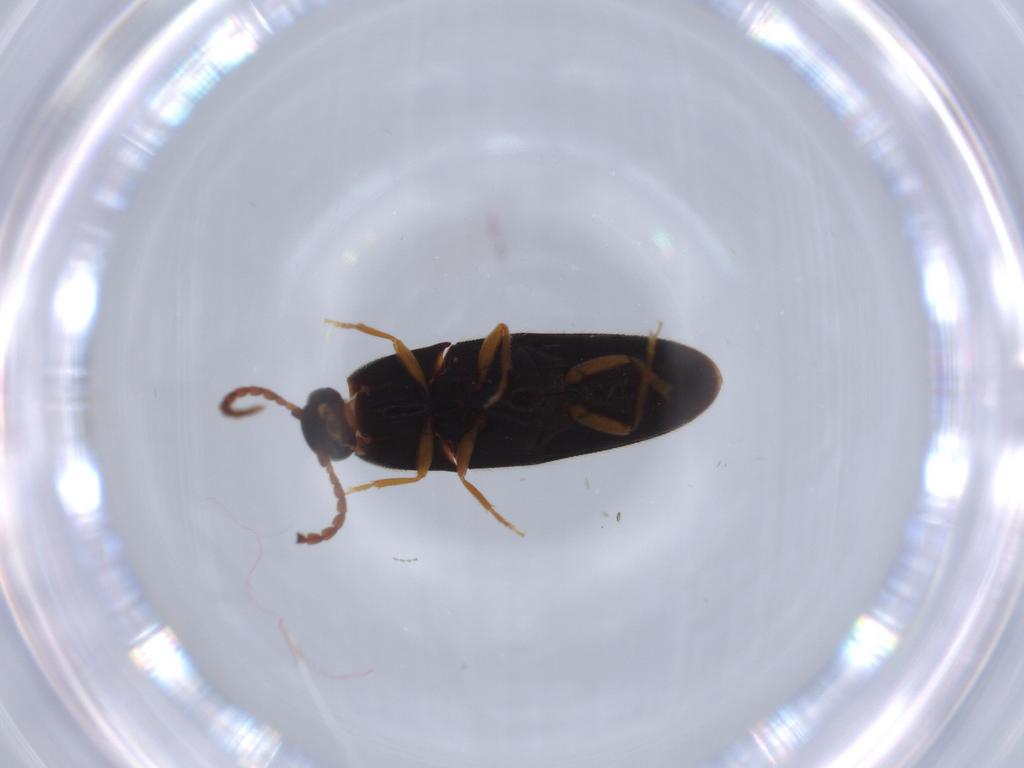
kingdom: Animalia
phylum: Arthropoda
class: Insecta
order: Coleoptera
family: Elateridae
